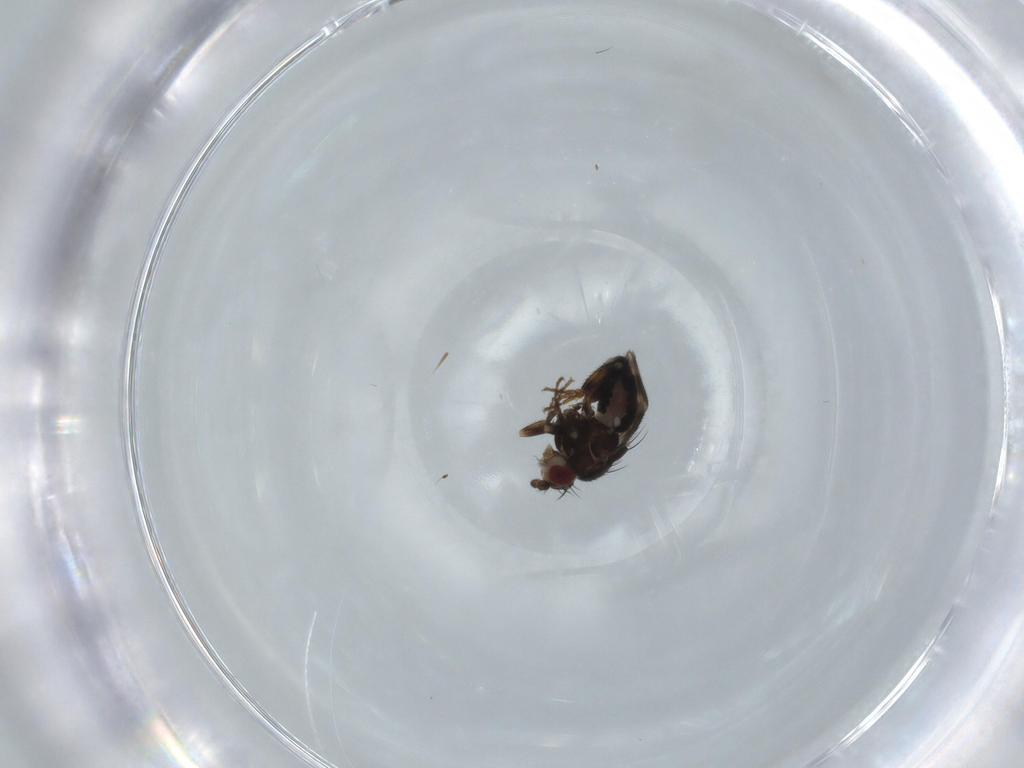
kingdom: Animalia
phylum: Arthropoda
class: Insecta
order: Diptera
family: Sphaeroceridae
